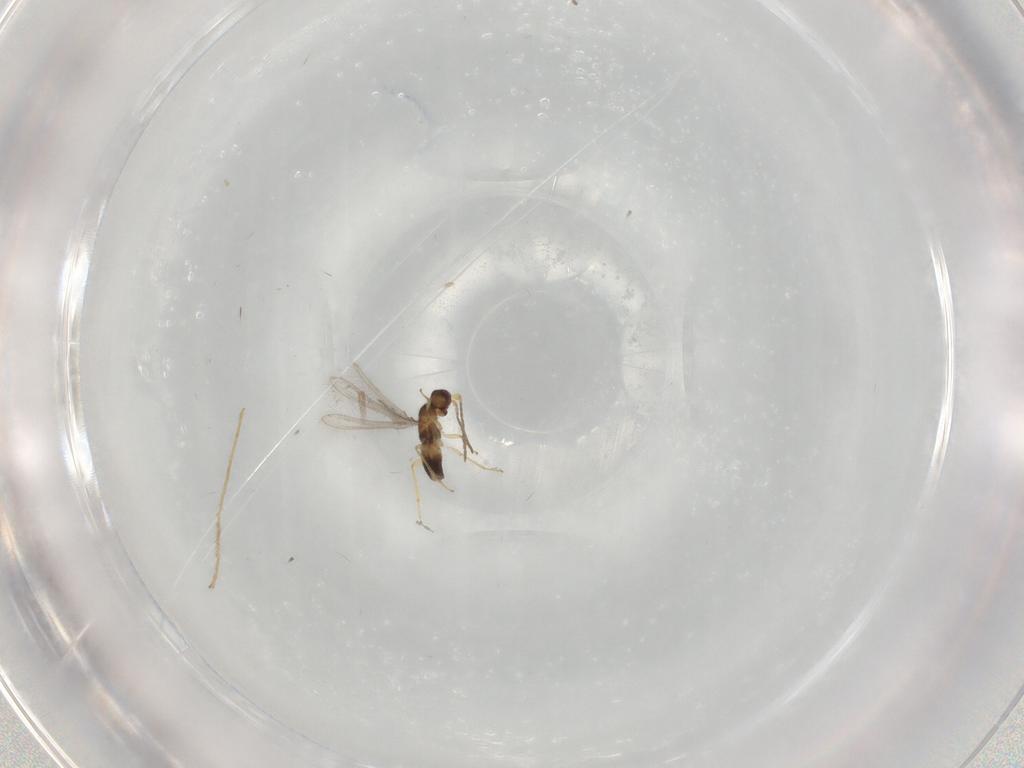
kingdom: Animalia
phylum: Arthropoda
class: Insecta
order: Hymenoptera
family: Mymaridae
